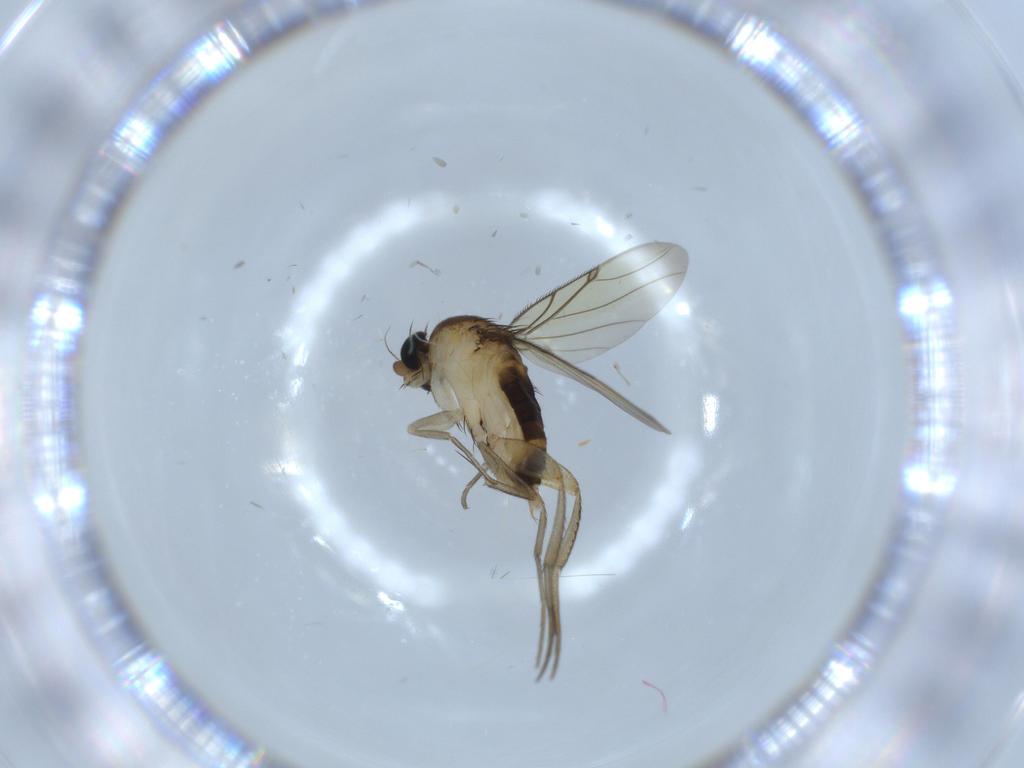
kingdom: Animalia
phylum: Arthropoda
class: Insecta
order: Diptera
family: Cecidomyiidae
